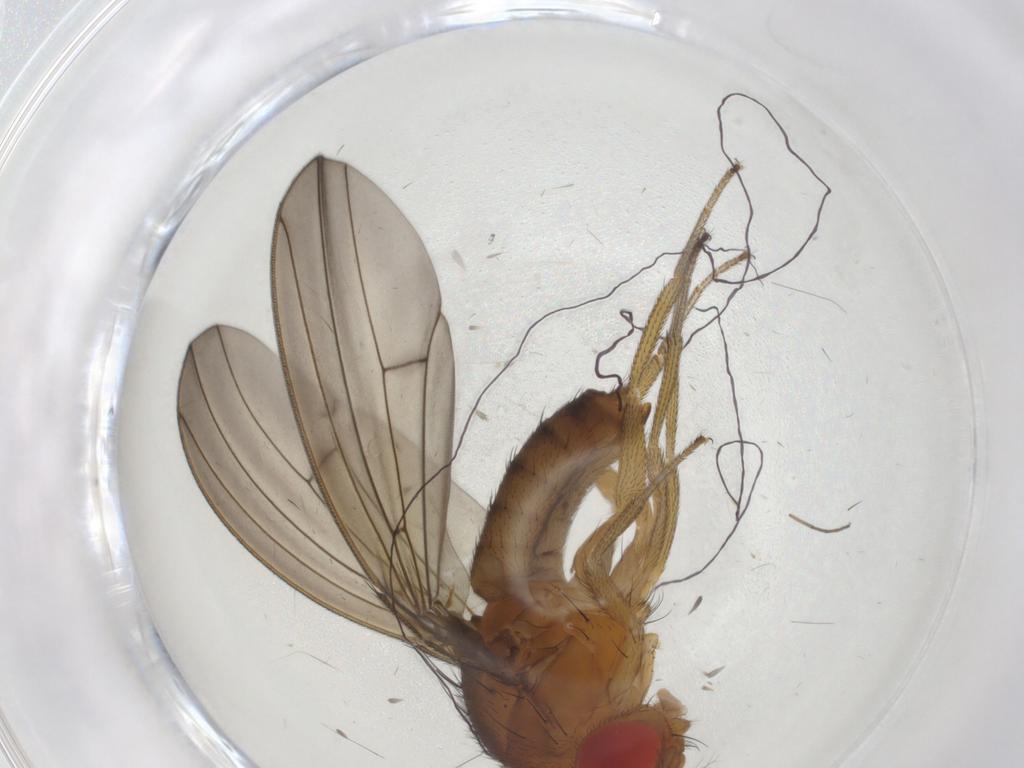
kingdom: Animalia
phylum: Arthropoda
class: Insecta
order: Diptera
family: Drosophilidae
